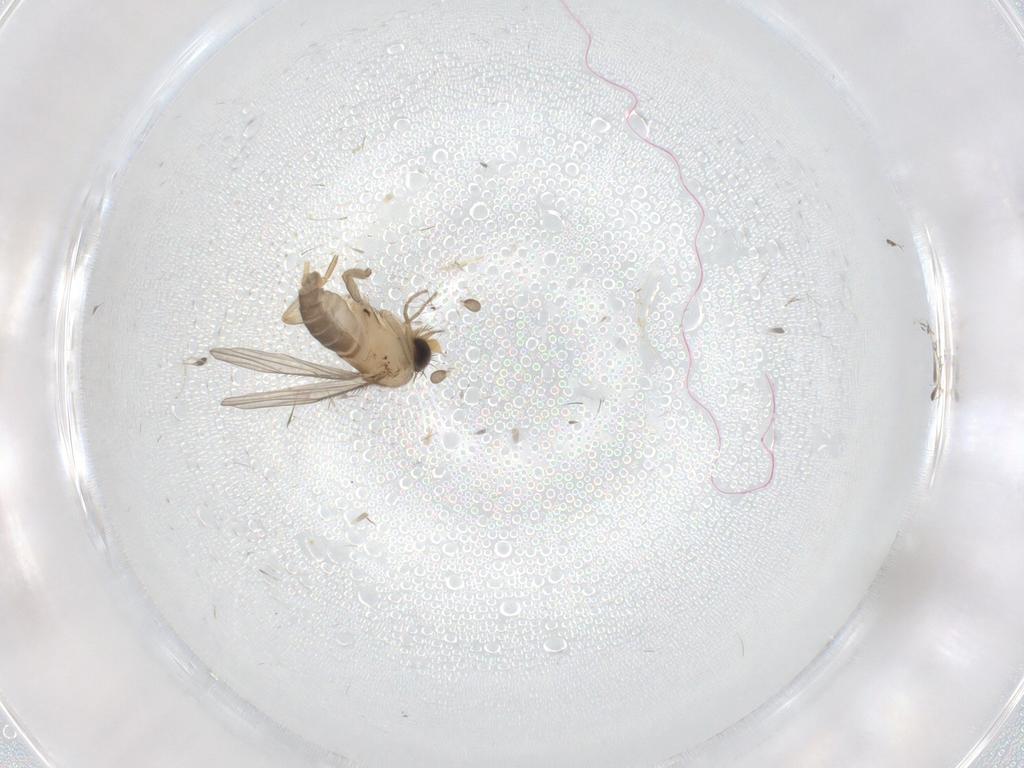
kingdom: Animalia
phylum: Arthropoda
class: Insecta
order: Diptera
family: Phoridae
